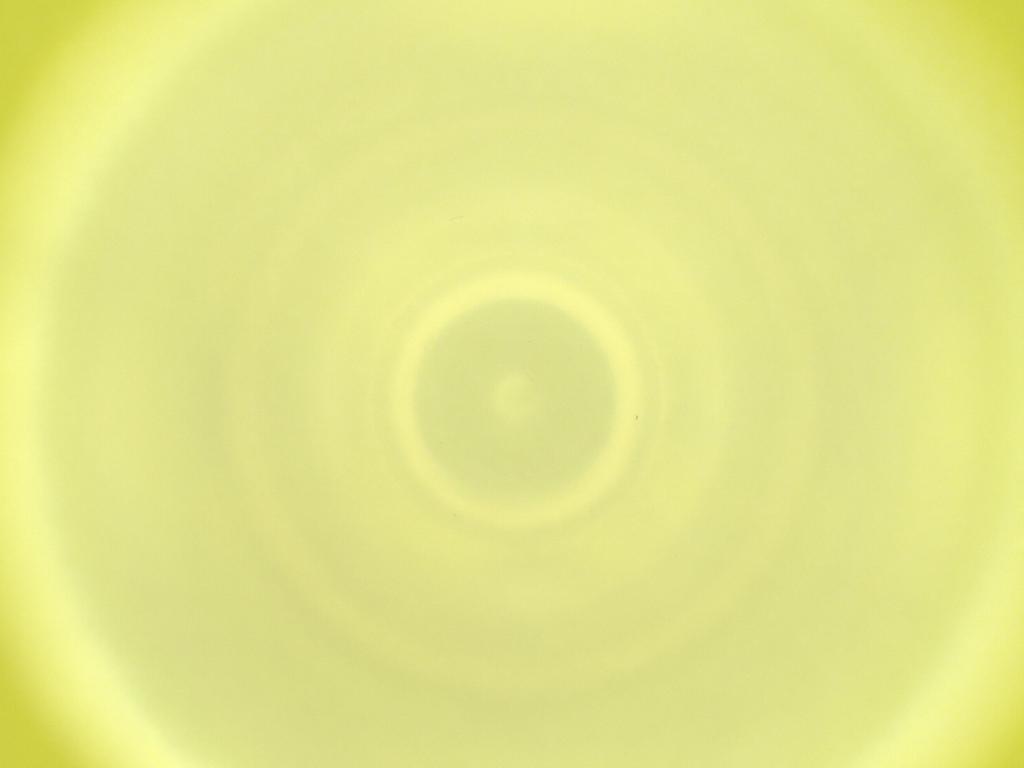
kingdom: Animalia
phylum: Arthropoda
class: Insecta
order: Diptera
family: Cecidomyiidae
